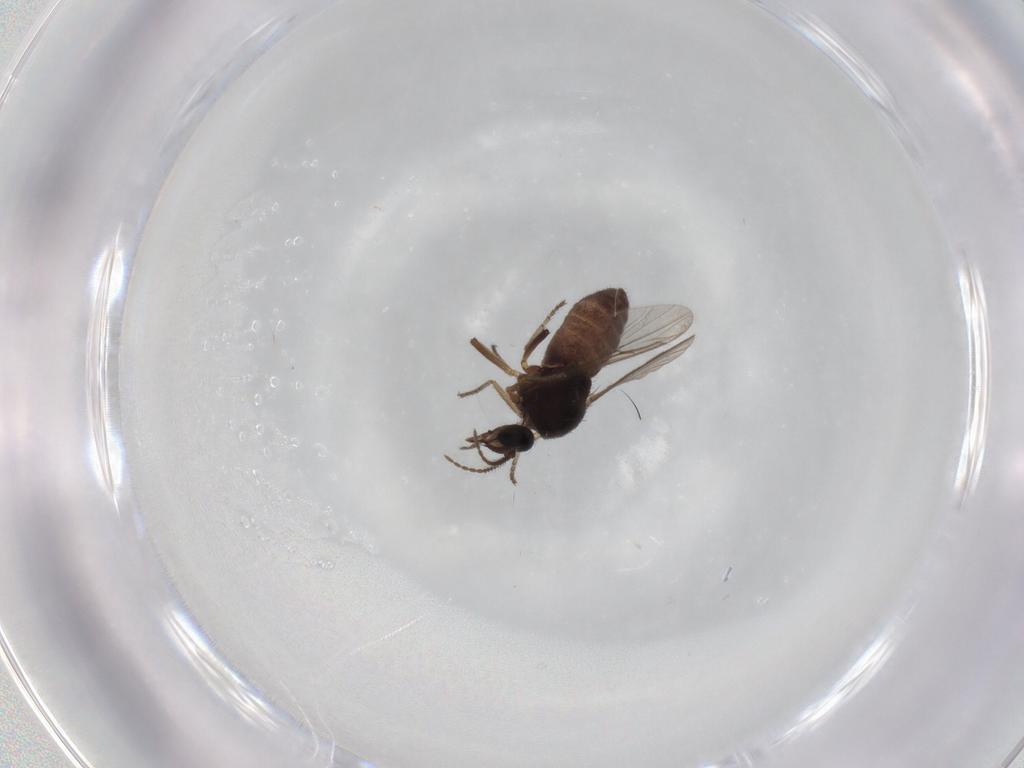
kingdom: Animalia
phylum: Arthropoda
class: Insecta
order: Diptera
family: Ceratopogonidae
